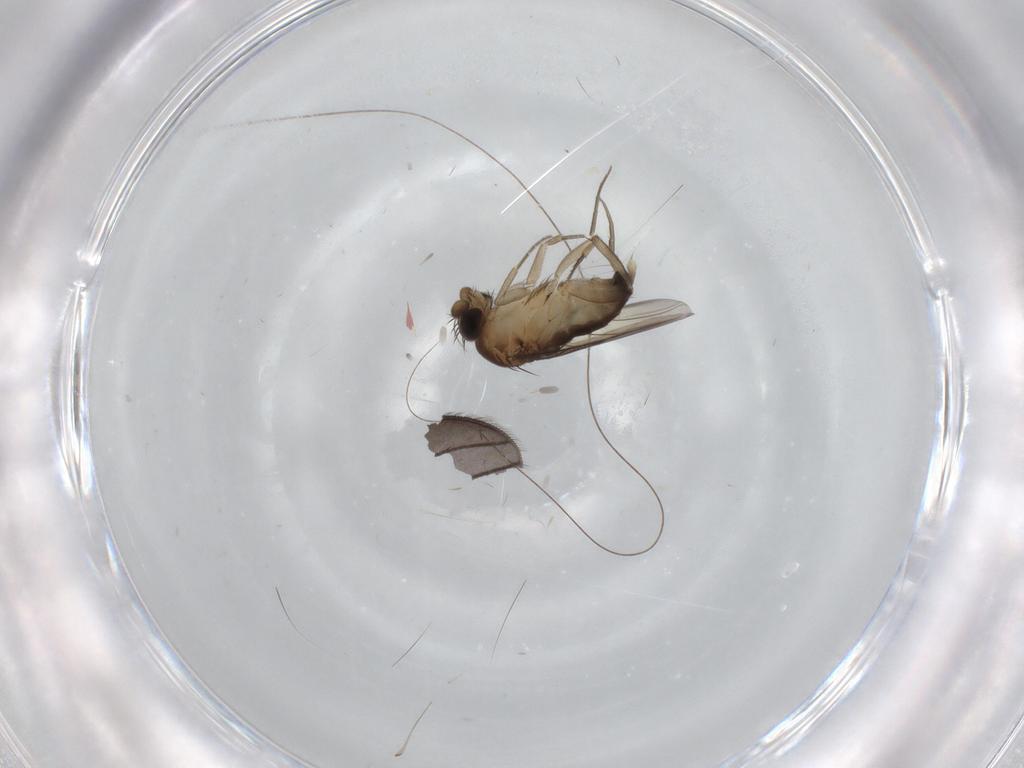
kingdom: Animalia
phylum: Arthropoda
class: Insecta
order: Diptera
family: Phoridae
